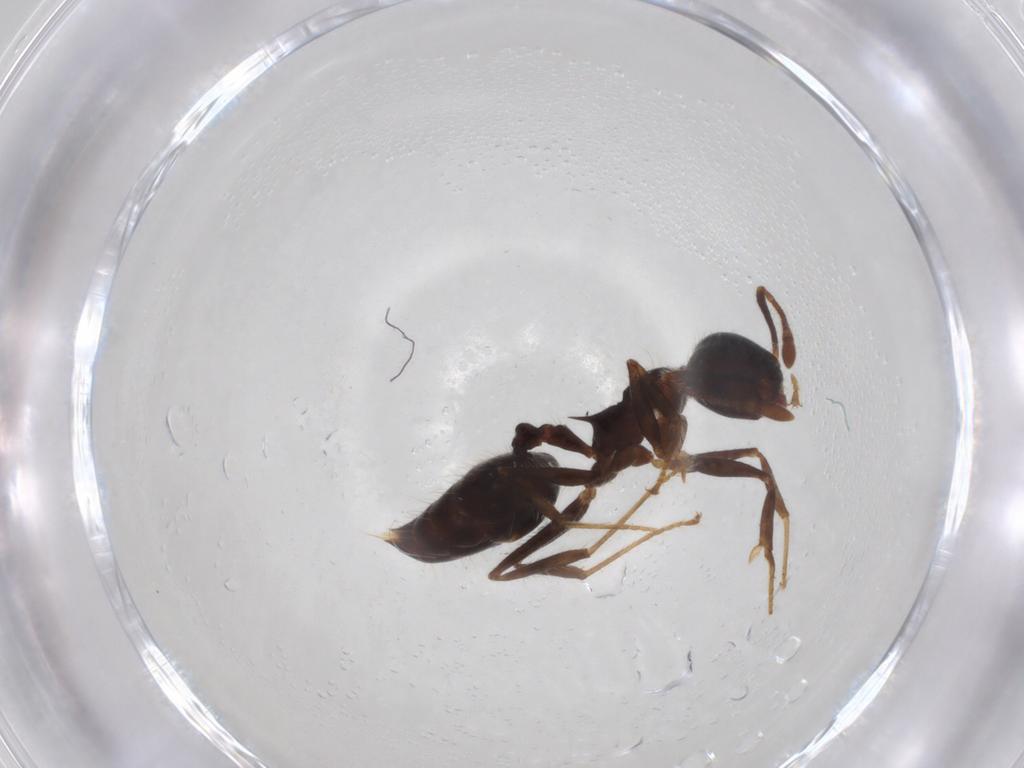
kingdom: Animalia
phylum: Arthropoda
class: Insecta
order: Hymenoptera
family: Formicidae
